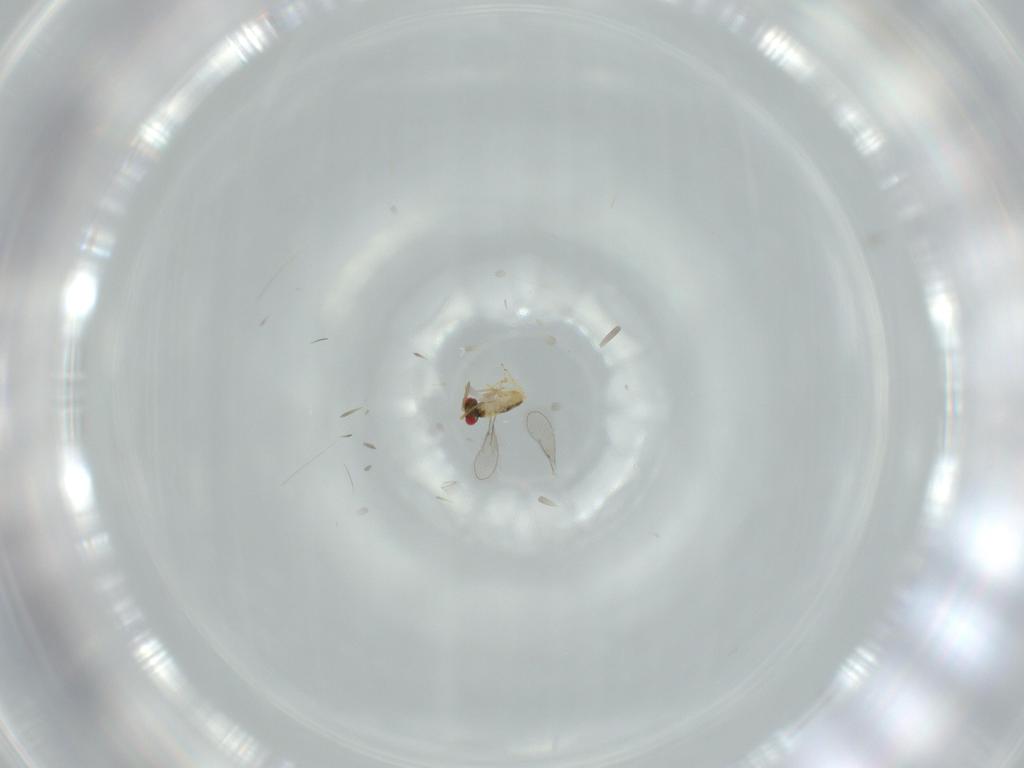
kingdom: Animalia
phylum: Arthropoda
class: Insecta
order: Hymenoptera
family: Aphelinidae
